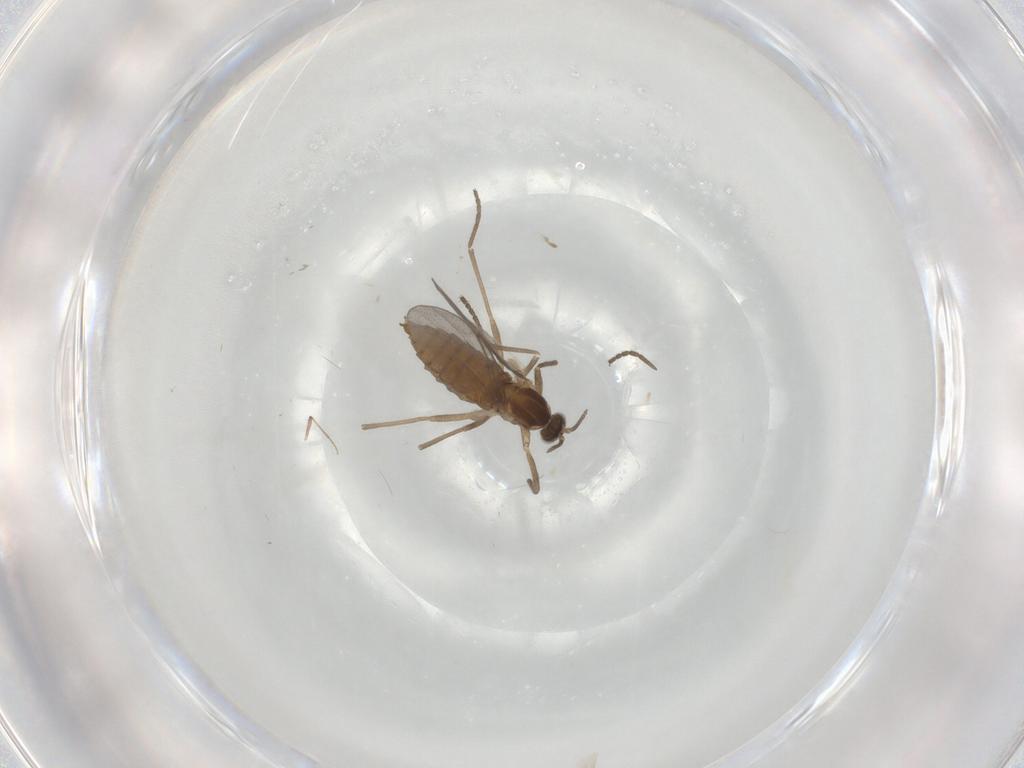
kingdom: Animalia
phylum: Arthropoda
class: Insecta
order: Diptera
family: Cecidomyiidae
